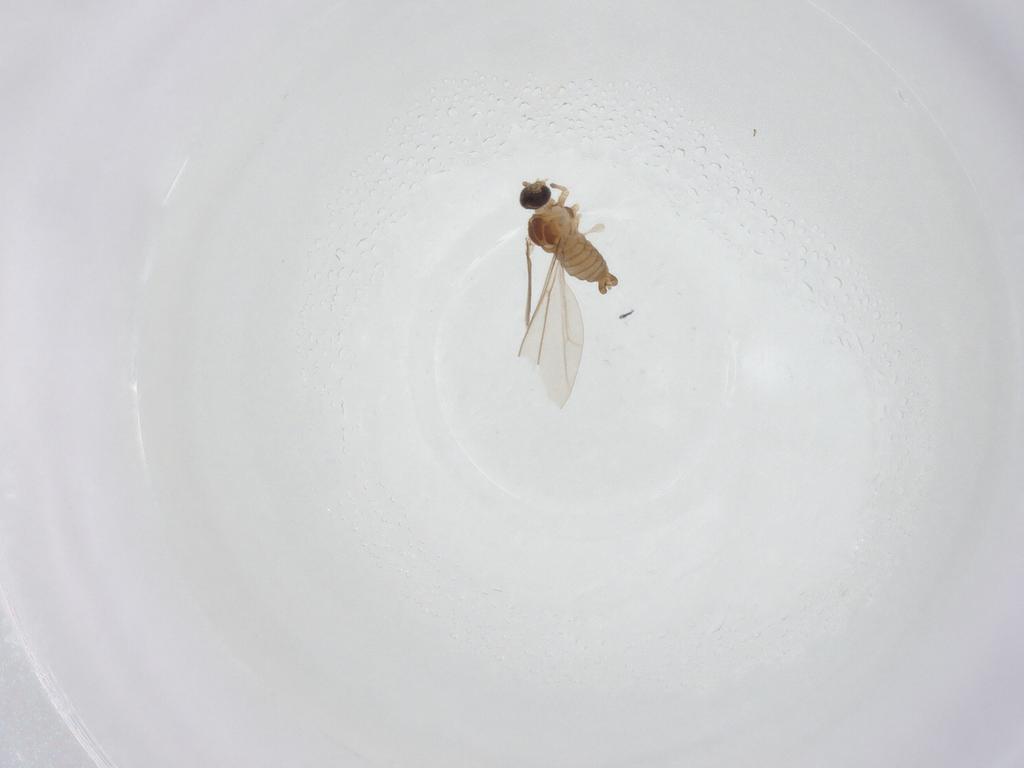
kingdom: Animalia
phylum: Arthropoda
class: Insecta
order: Diptera
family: Cecidomyiidae
